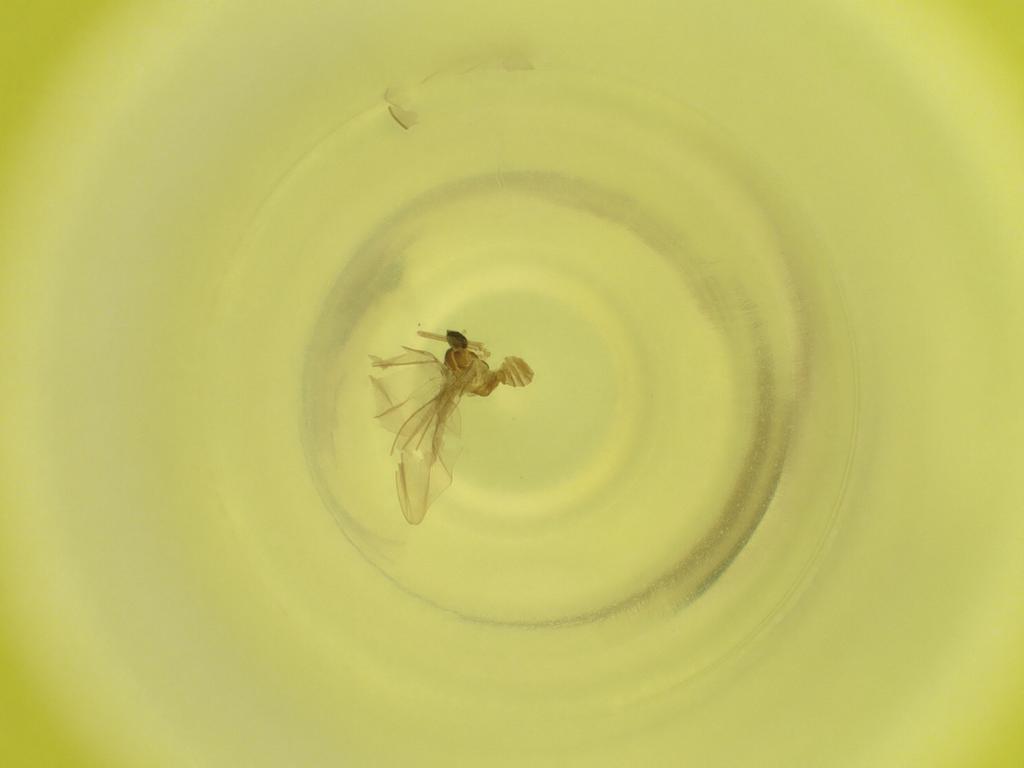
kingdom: Animalia
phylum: Arthropoda
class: Insecta
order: Diptera
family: Cecidomyiidae
